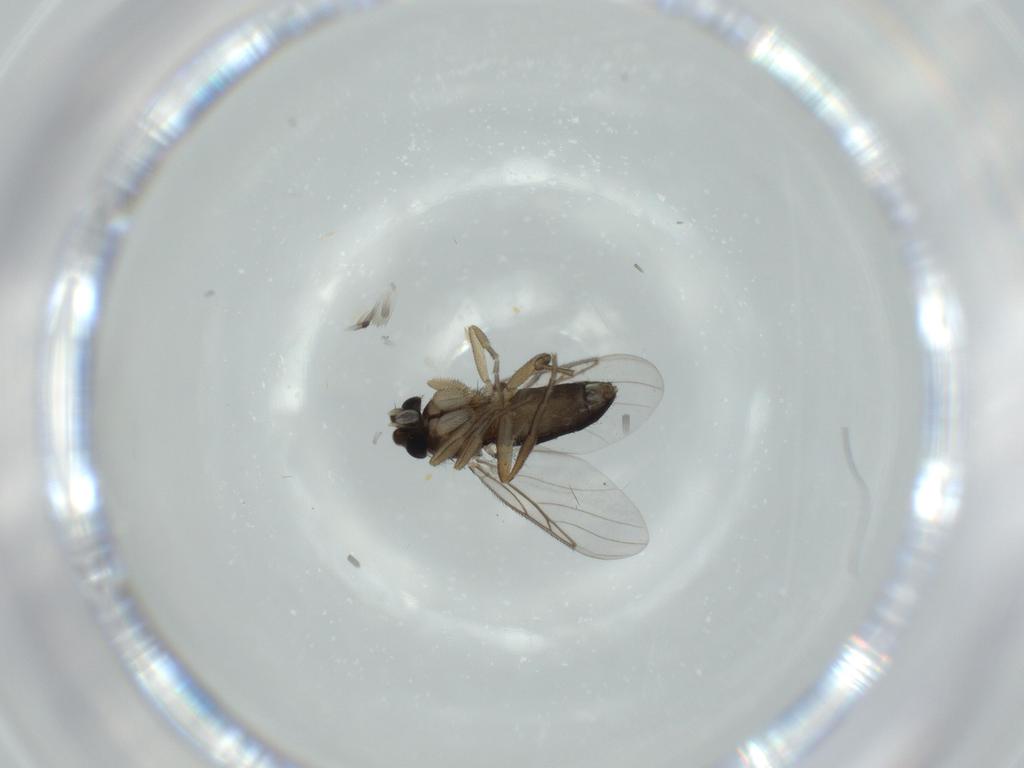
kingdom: Animalia
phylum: Arthropoda
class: Insecta
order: Diptera
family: Phoridae
